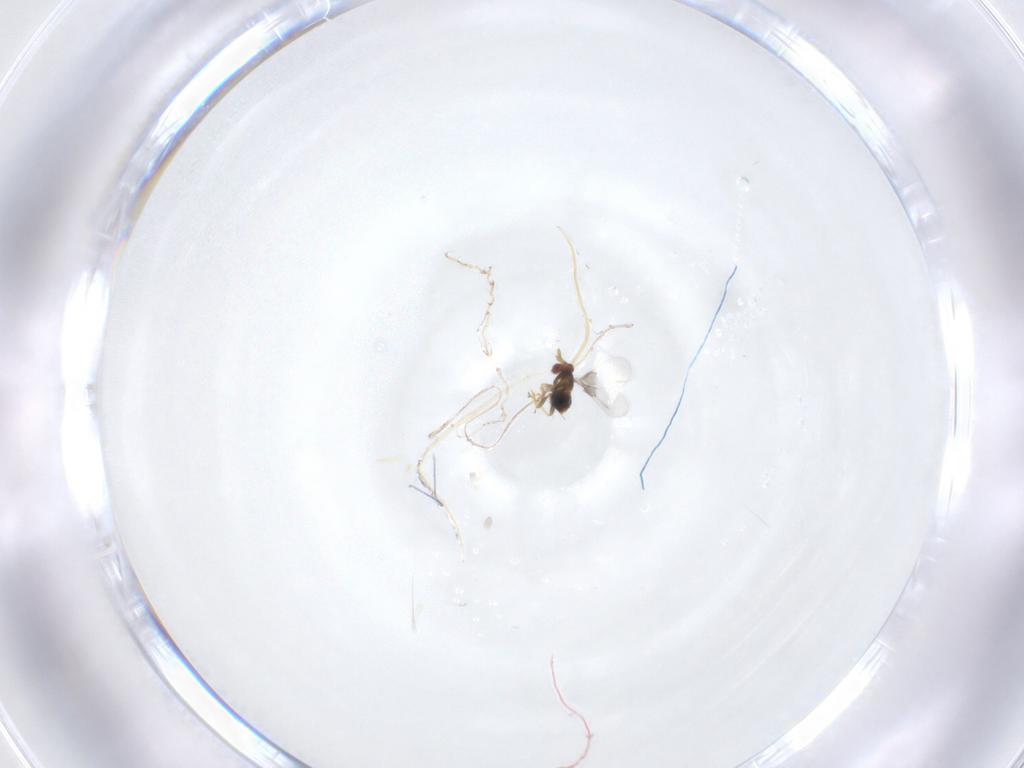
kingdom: Animalia
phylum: Arthropoda
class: Insecta
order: Hymenoptera
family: Trichogrammatidae
